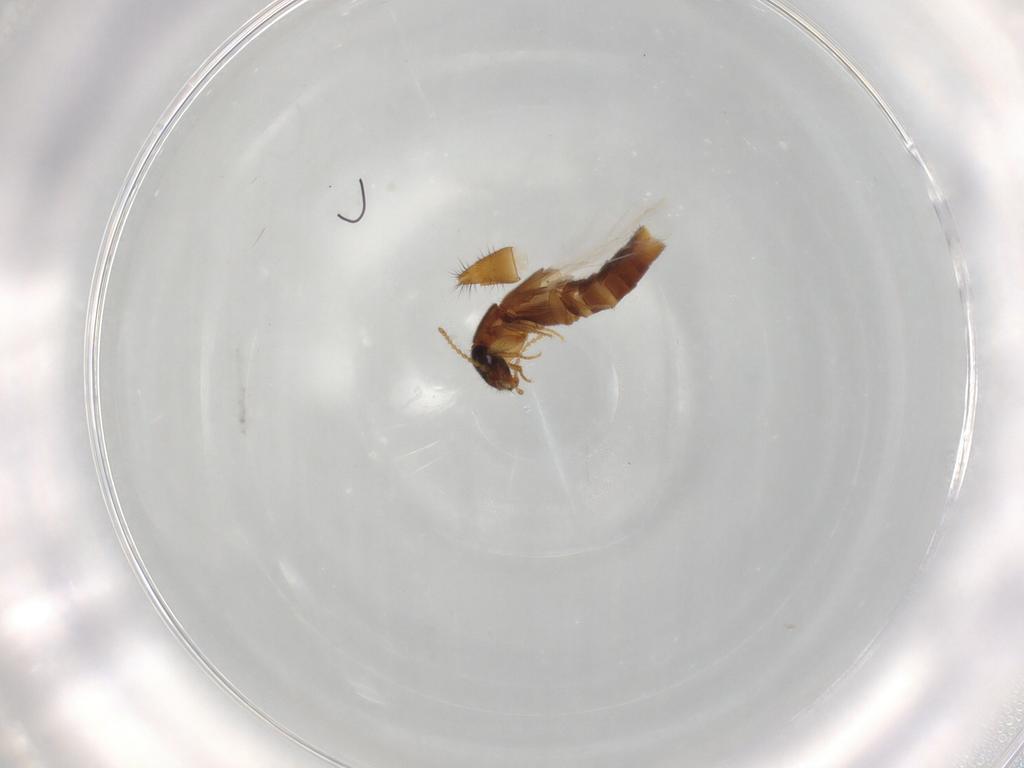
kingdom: Animalia
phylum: Arthropoda
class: Insecta
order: Coleoptera
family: Staphylinidae
